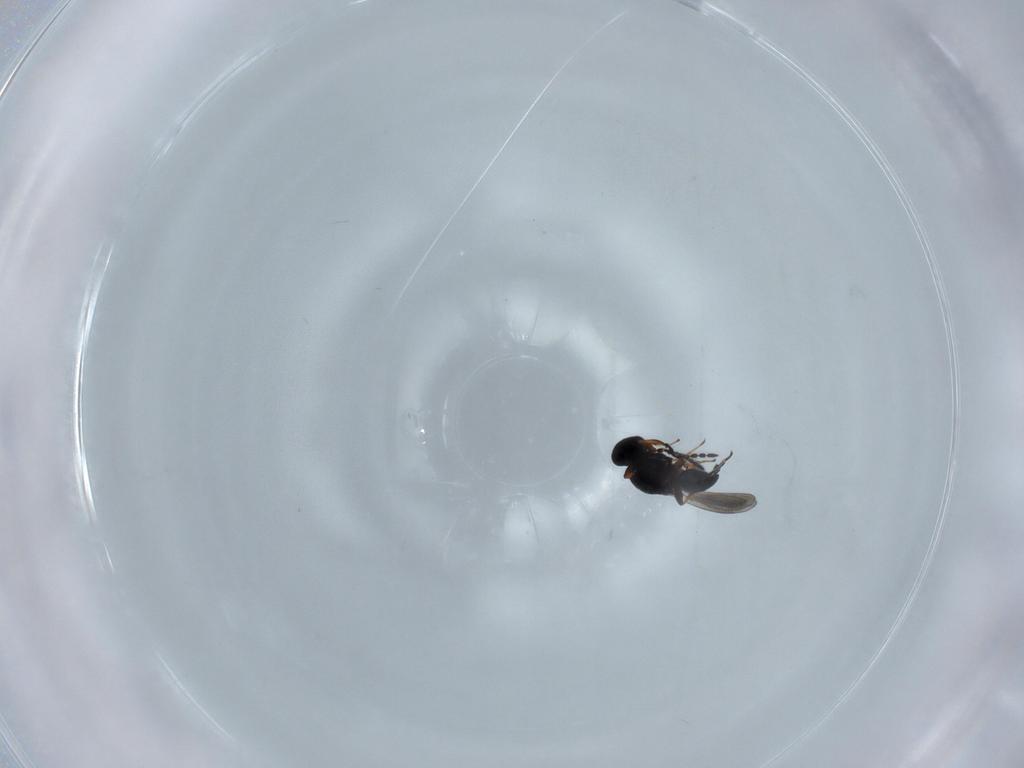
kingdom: Animalia
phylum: Arthropoda
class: Insecta
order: Hymenoptera
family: Platygastridae
